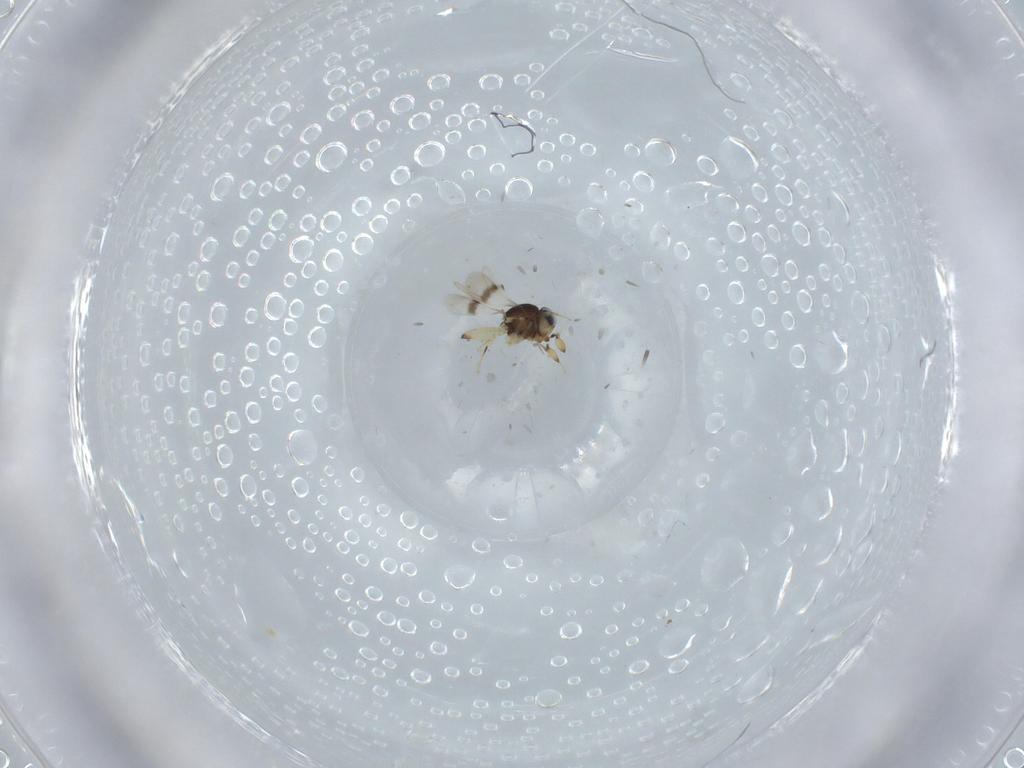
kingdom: Animalia
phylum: Arthropoda
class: Insecta
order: Hymenoptera
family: Scelionidae
